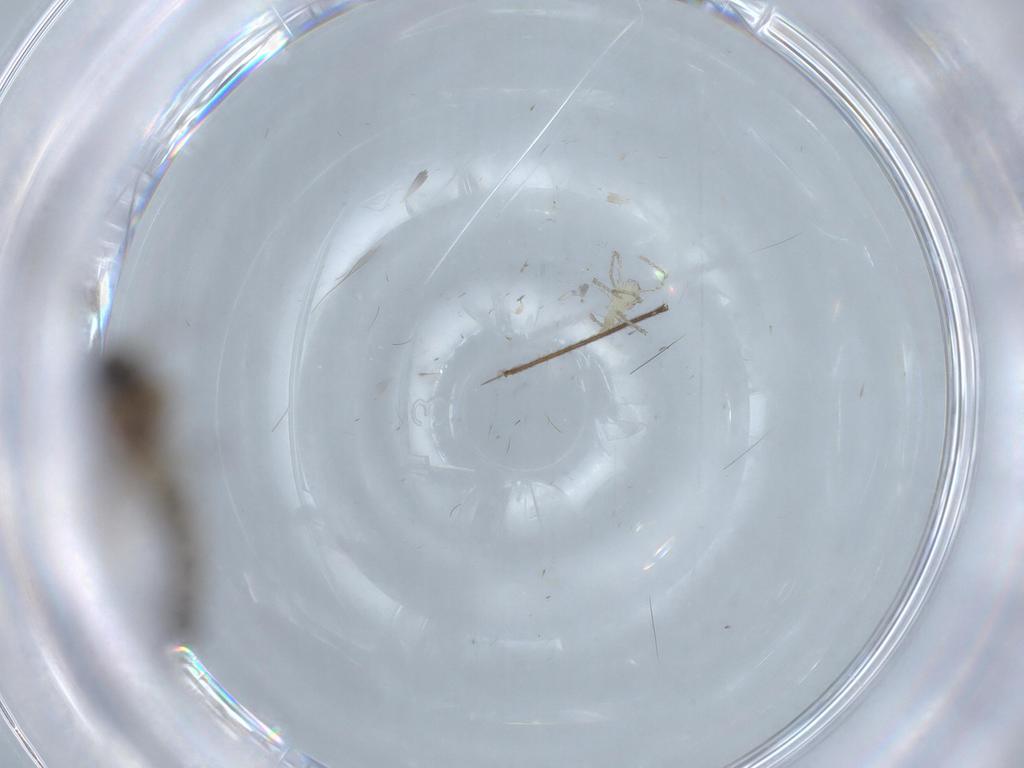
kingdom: Animalia
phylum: Arthropoda
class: Insecta
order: Diptera
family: Sciaridae
